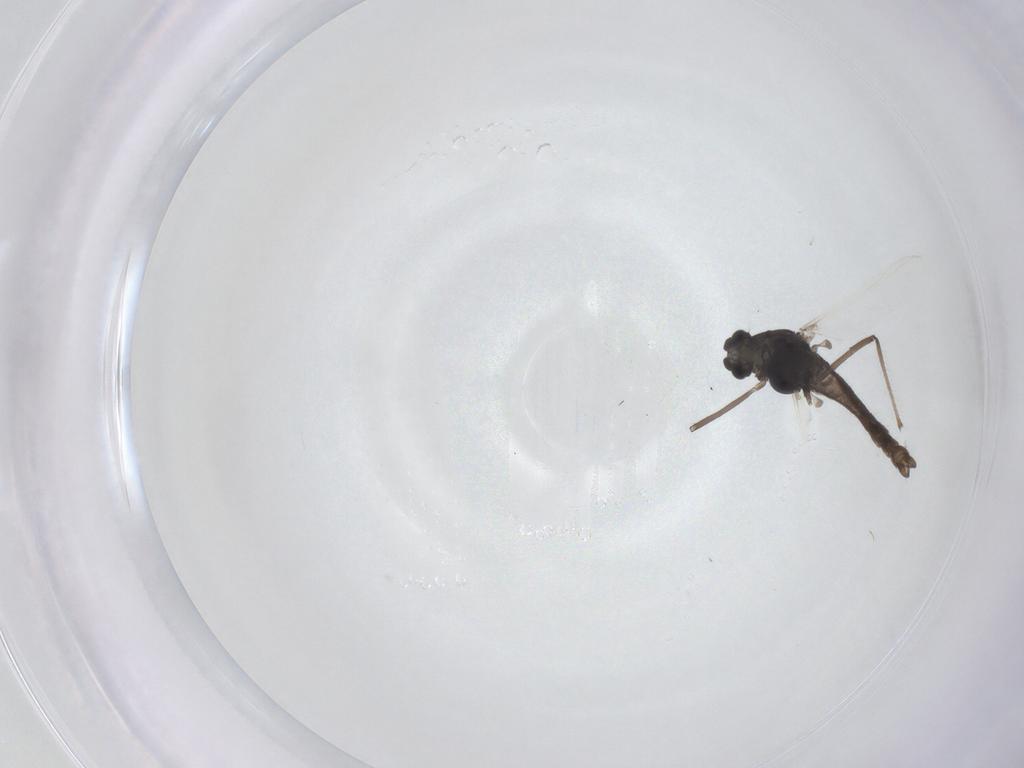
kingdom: Animalia
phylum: Arthropoda
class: Insecta
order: Diptera
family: Chironomidae
